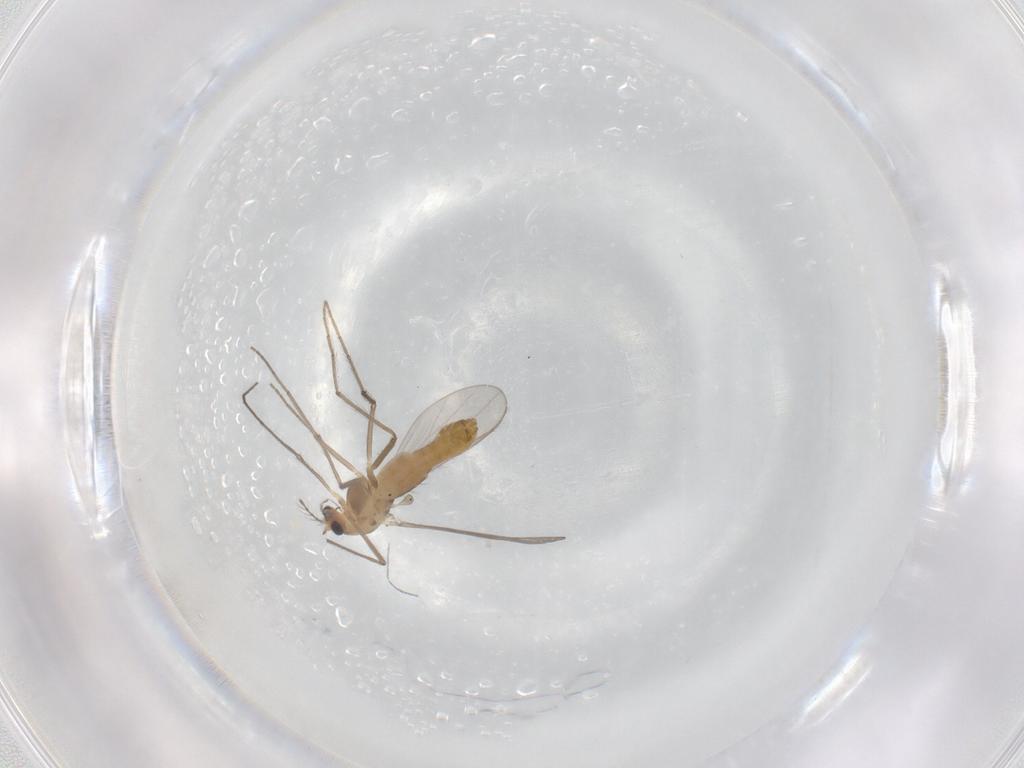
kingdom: Animalia
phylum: Arthropoda
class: Insecta
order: Diptera
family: Chironomidae
